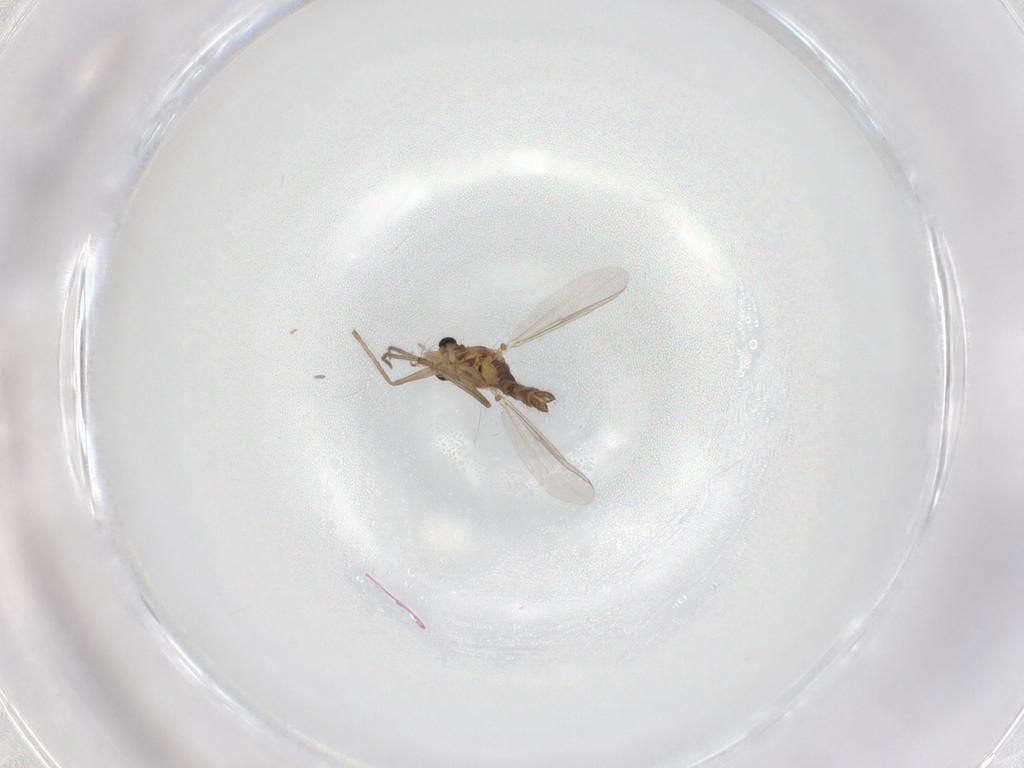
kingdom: Animalia
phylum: Arthropoda
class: Insecta
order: Diptera
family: Chironomidae
